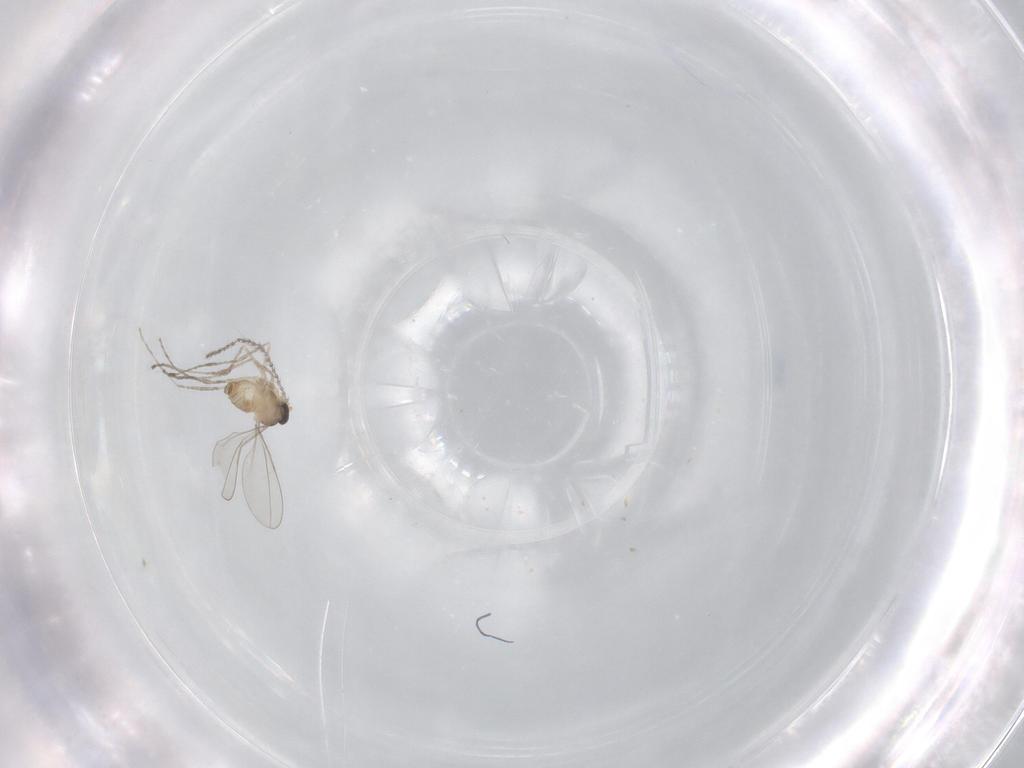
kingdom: Animalia
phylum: Arthropoda
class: Insecta
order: Diptera
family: Cecidomyiidae
